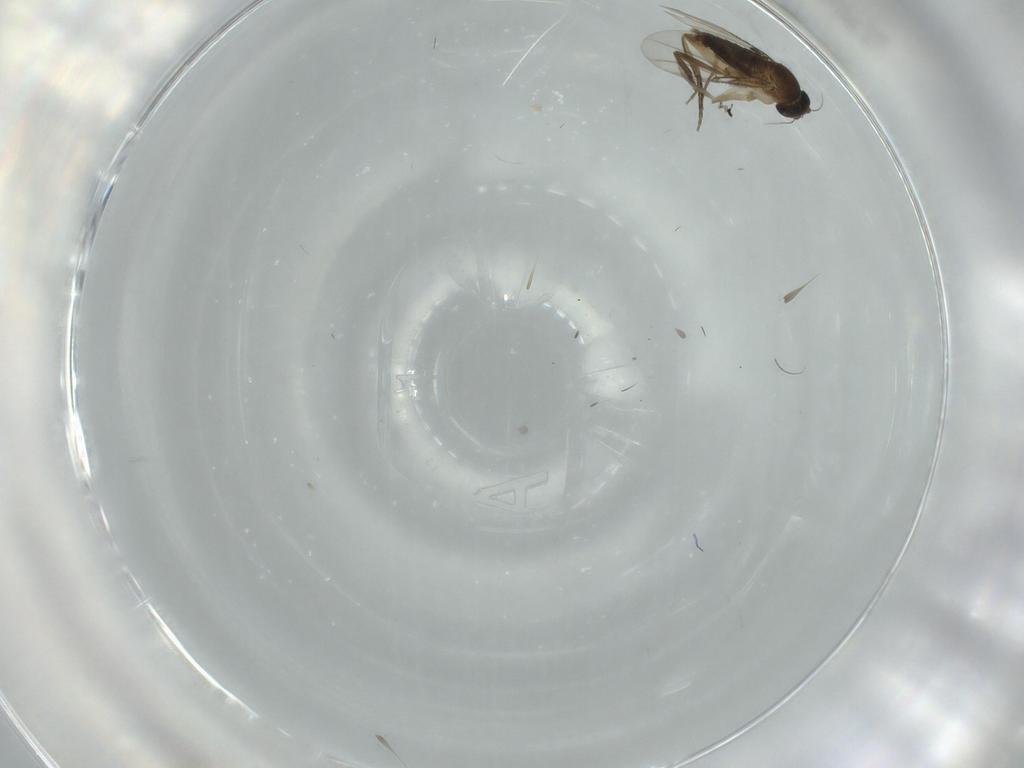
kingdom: Animalia
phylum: Arthropoda
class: Insecta
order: Diptera
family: Phoridae
